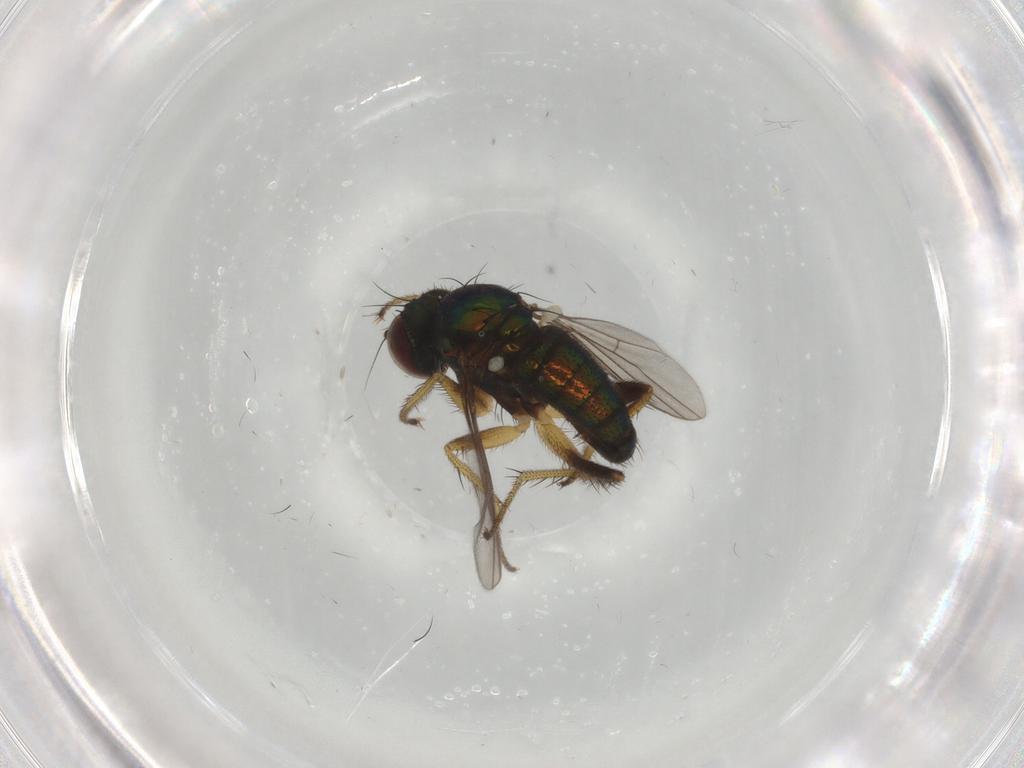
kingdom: Animalia
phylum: Arthropoda
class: Insecta
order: Diptera
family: Dolichopodidae
